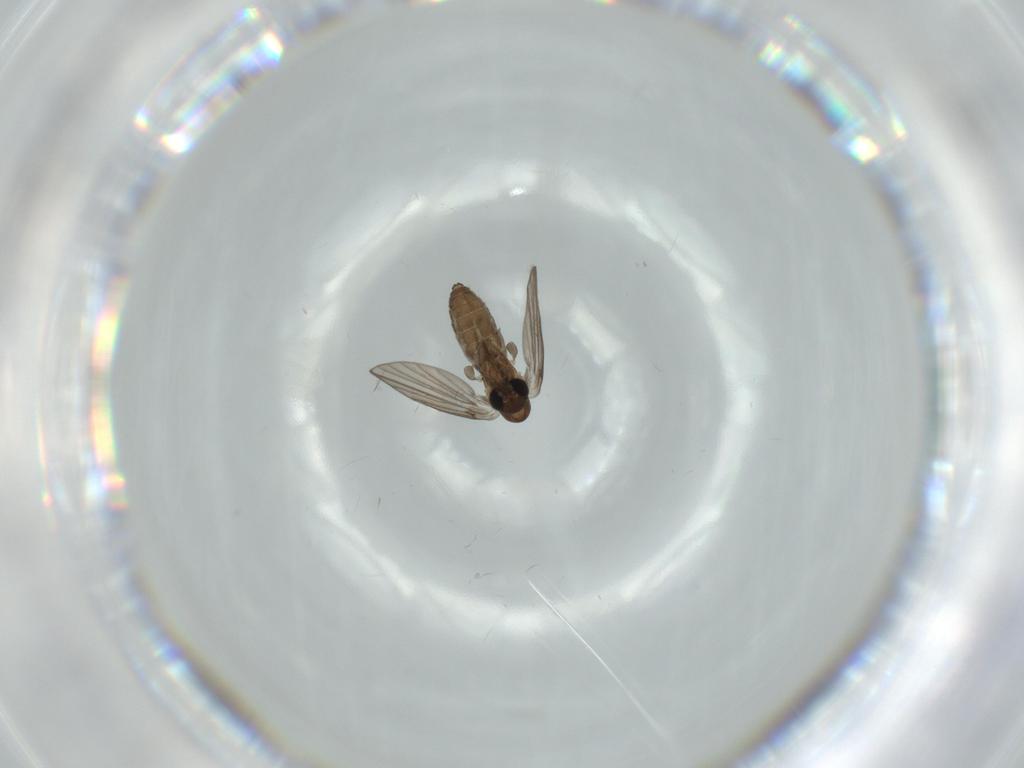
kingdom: Animalia
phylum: Arthropoda
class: Insecta
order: Diptera
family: Psychodidae
